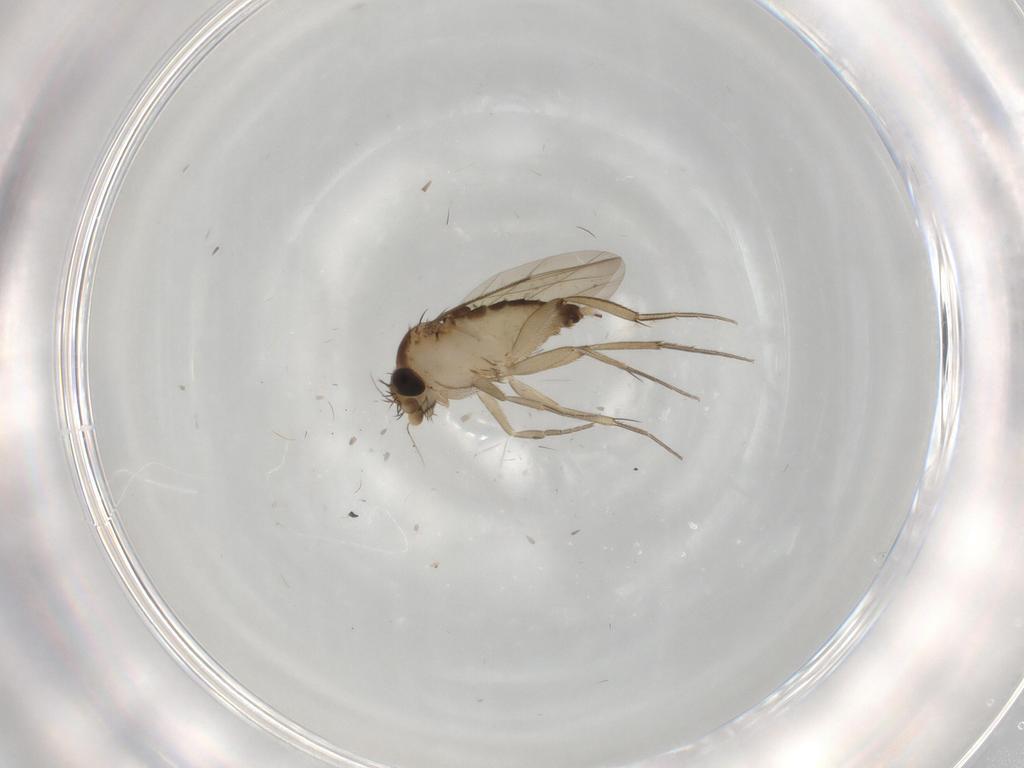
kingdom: Animalia
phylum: Arthropoda
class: Insecta
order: Diptera
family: Phoridae
